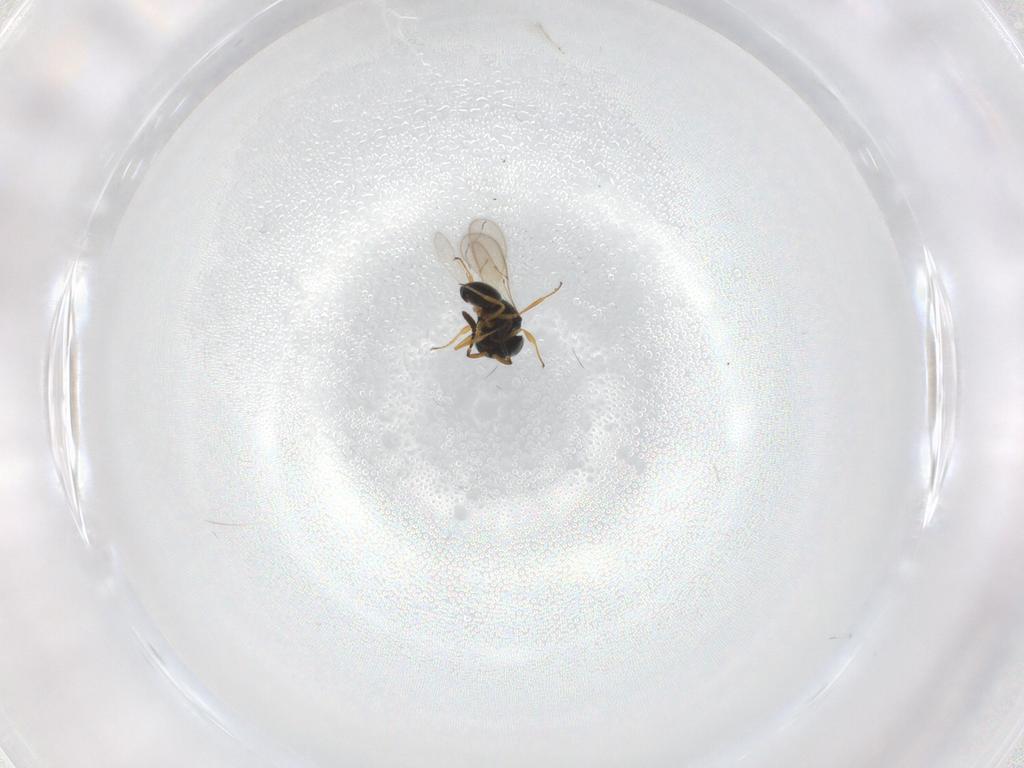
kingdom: Animalia
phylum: Arthropoda
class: Insecta
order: Hymenoptera
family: Scelionidae
